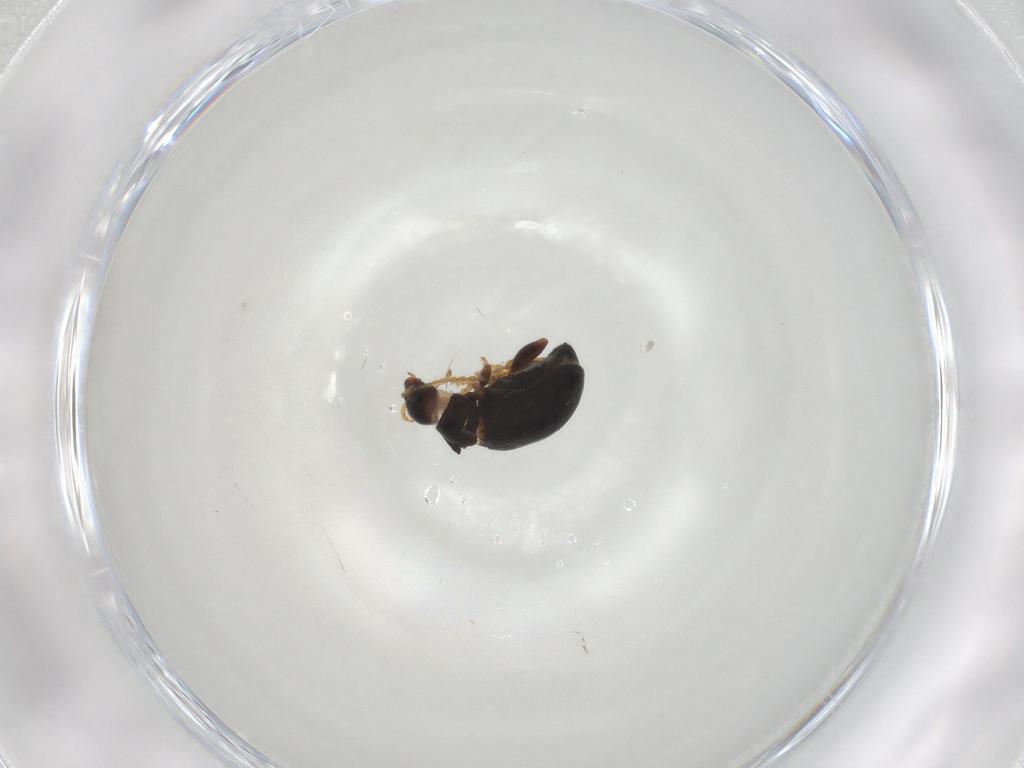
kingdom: Animalia
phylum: Arthropoda
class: Insecta
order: Coleoptera
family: Chrysomelidae
